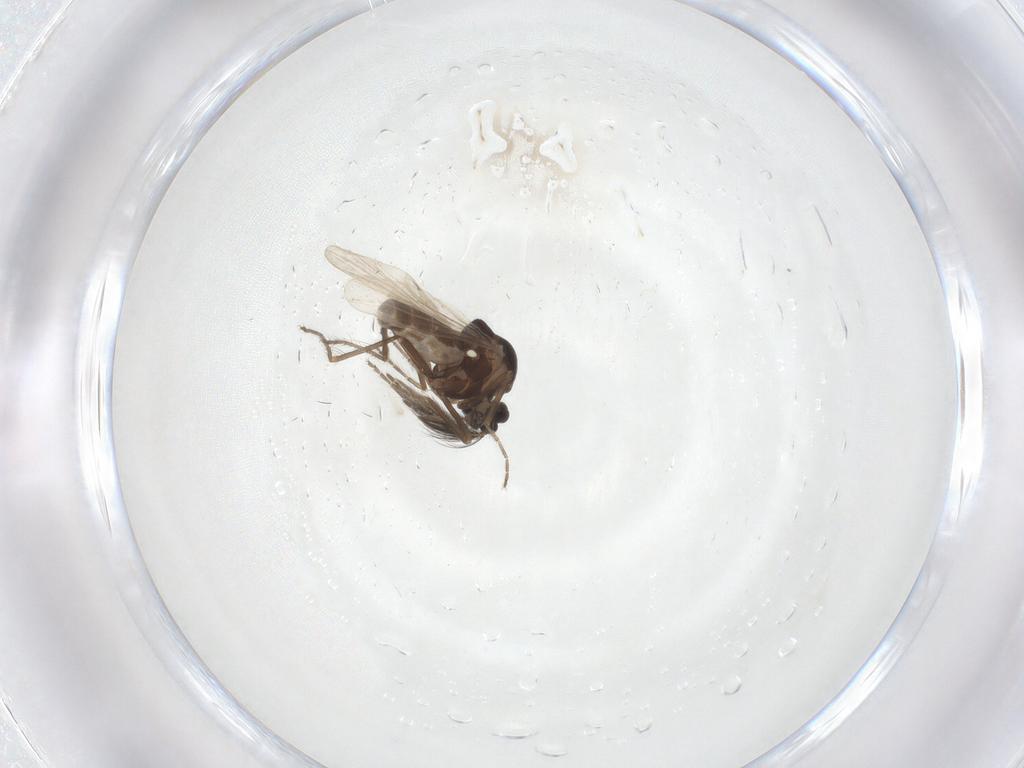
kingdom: Animalia
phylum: Arthropoda
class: Insecta
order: Diptera
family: Ceratopogonidae
